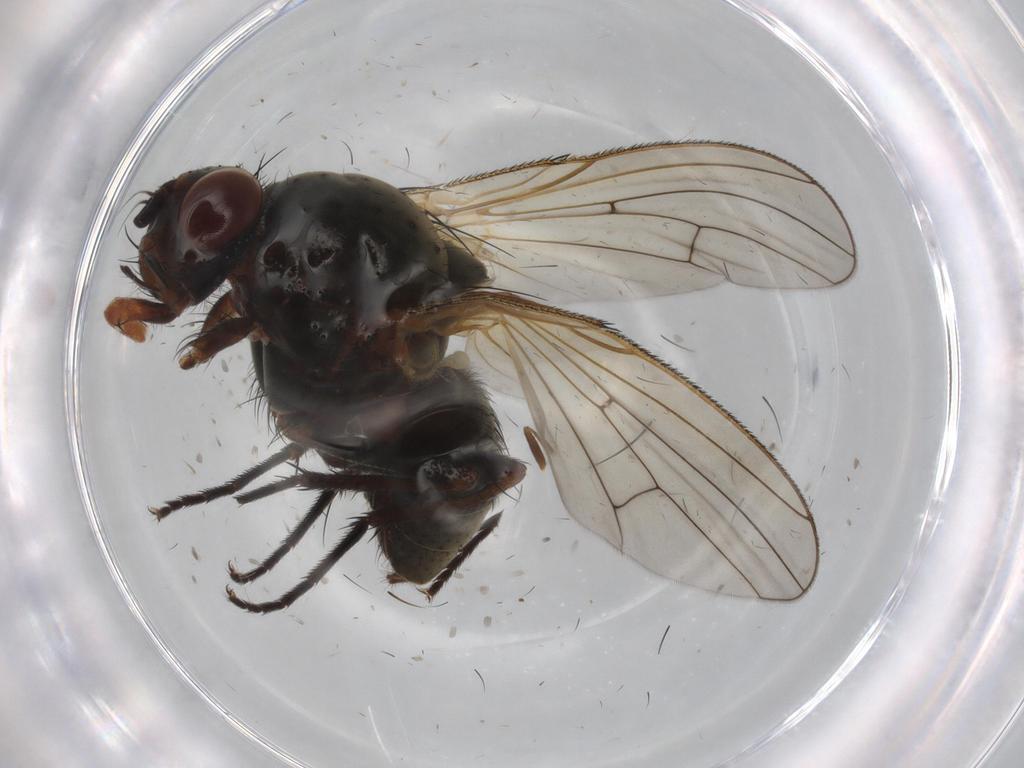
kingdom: Animalia
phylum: Arthropoda
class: Insecta
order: Diptera
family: Anthomyiidae
